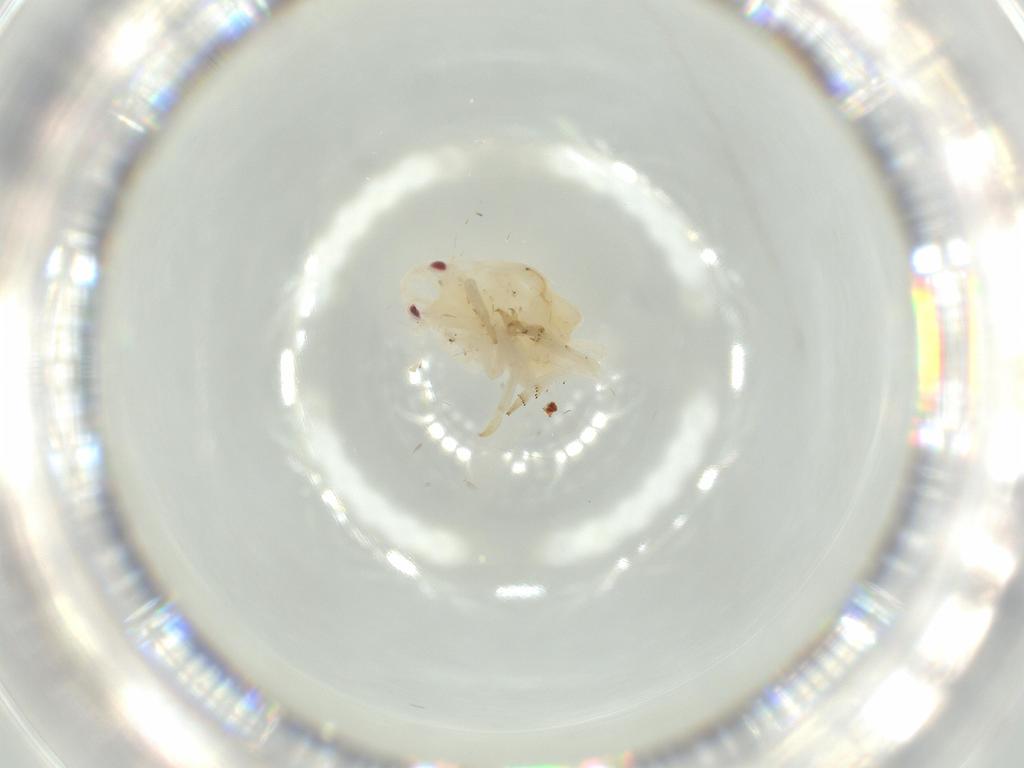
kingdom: Animalia
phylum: Arthropoda
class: Insecta
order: Hemiptera
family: Flatidae
